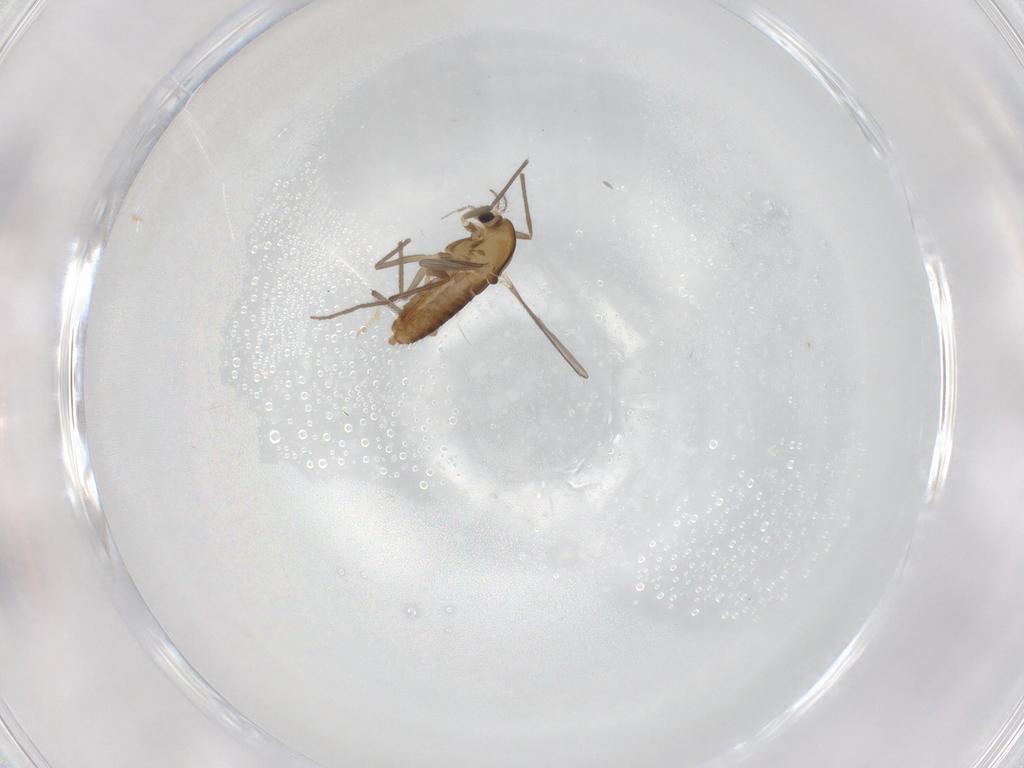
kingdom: Animalia
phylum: Arthropoda
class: Insecta
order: Diptera
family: Chironomidae
